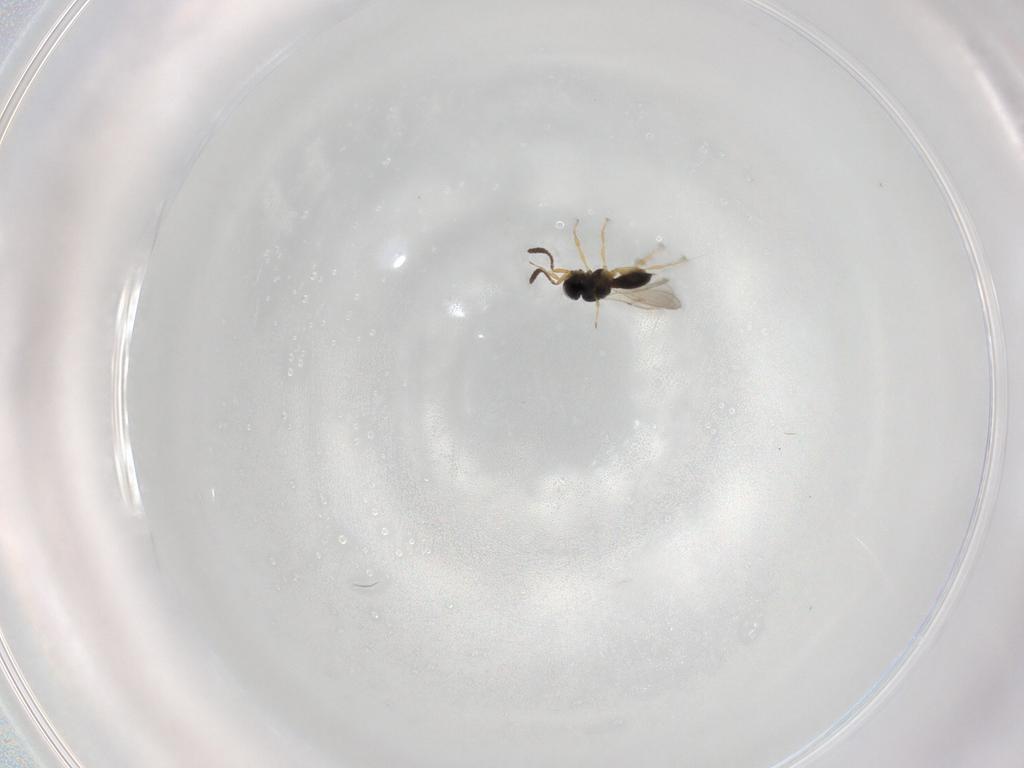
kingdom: Animalia
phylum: Arthropoda
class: Insecta
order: Hymenoptera
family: Scelionidae
